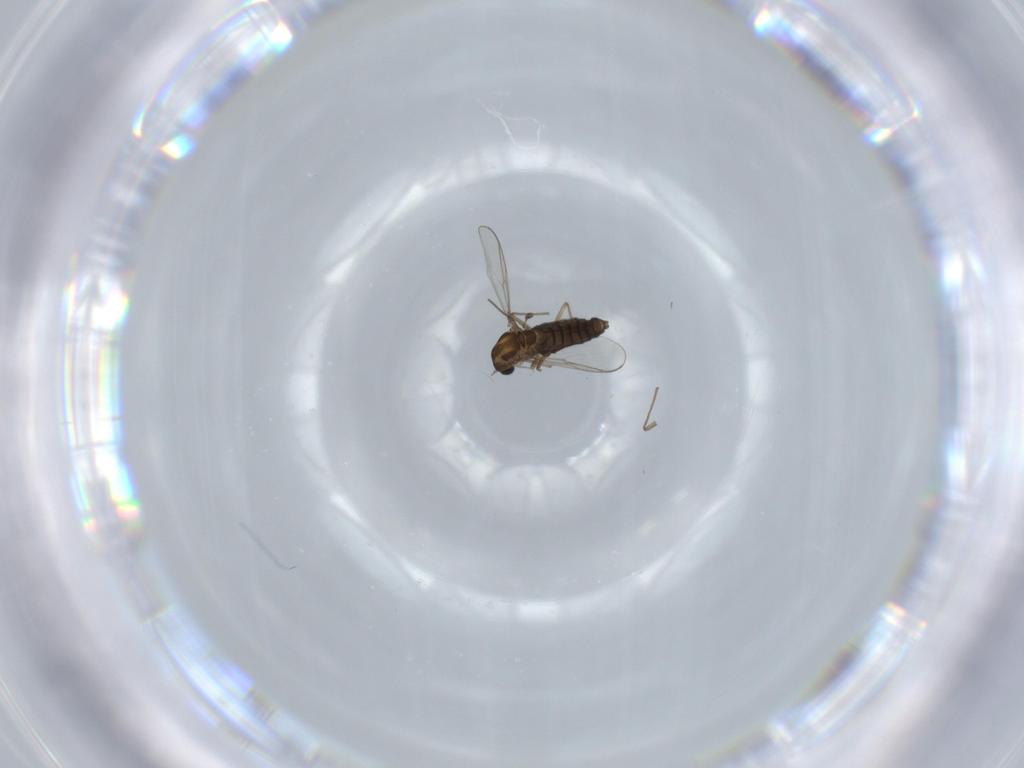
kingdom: Animalia
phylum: Arthropoda
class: Insecta
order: Diptera
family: Chironomidae
